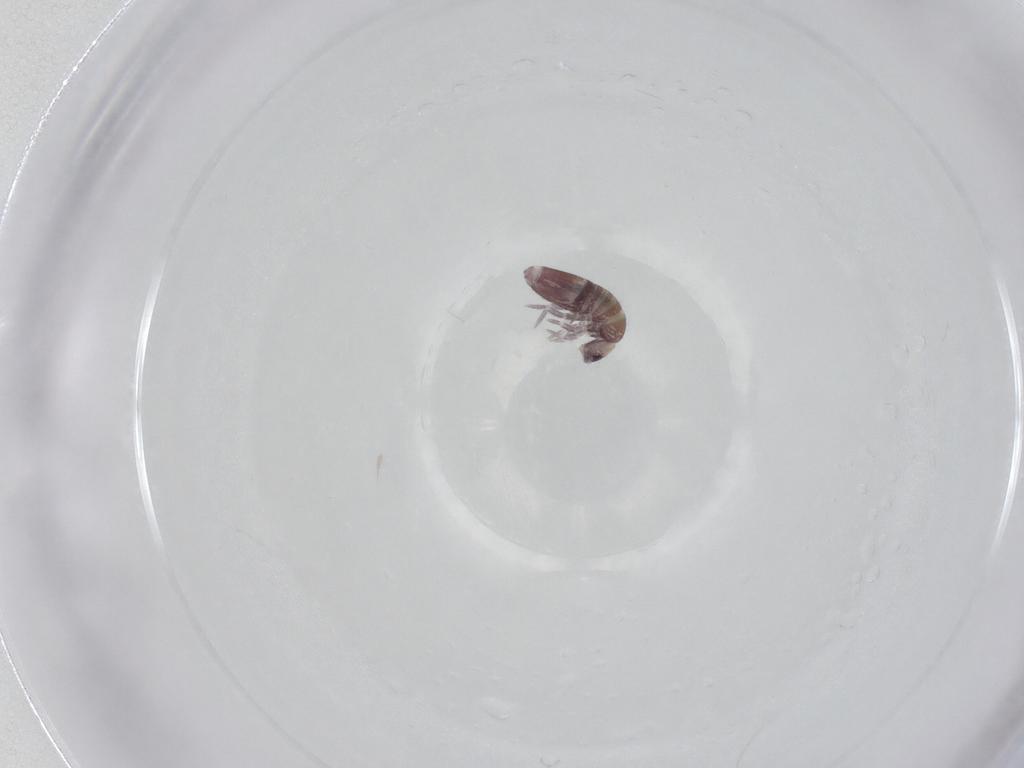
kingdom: Animalia
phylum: Arthropoda
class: Collembola
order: Entomobryomorpha
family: Entomobryidae
